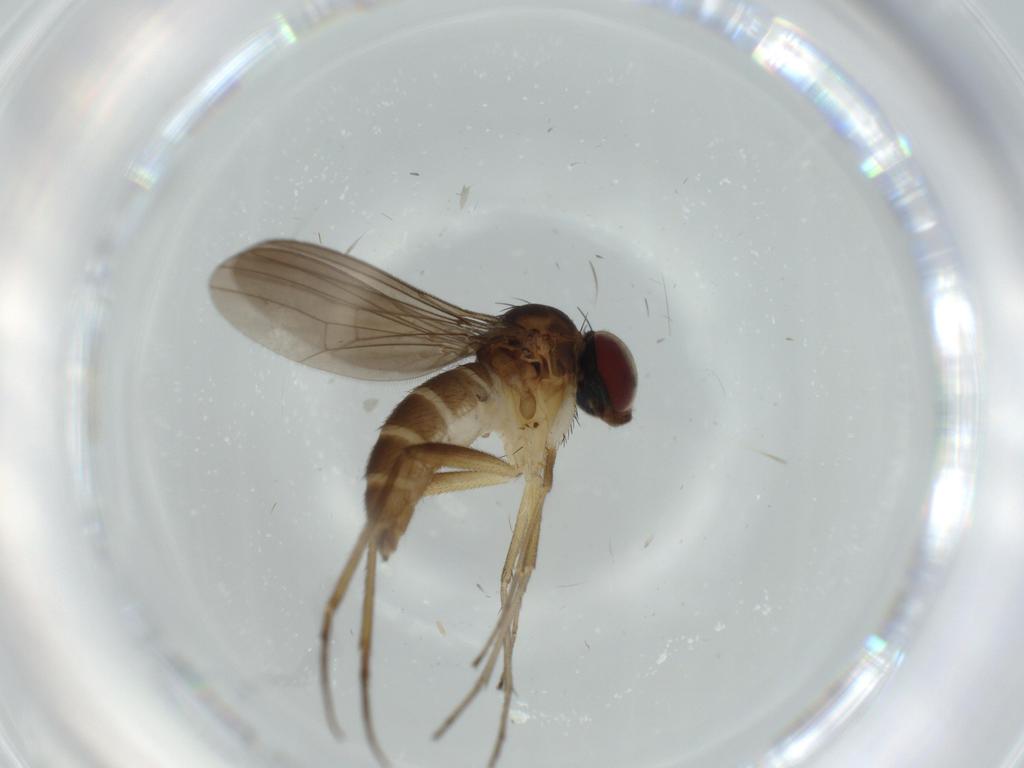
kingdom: Animalia
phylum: Arthropoda
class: Insecta
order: Diptera
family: Dolichopodidae
